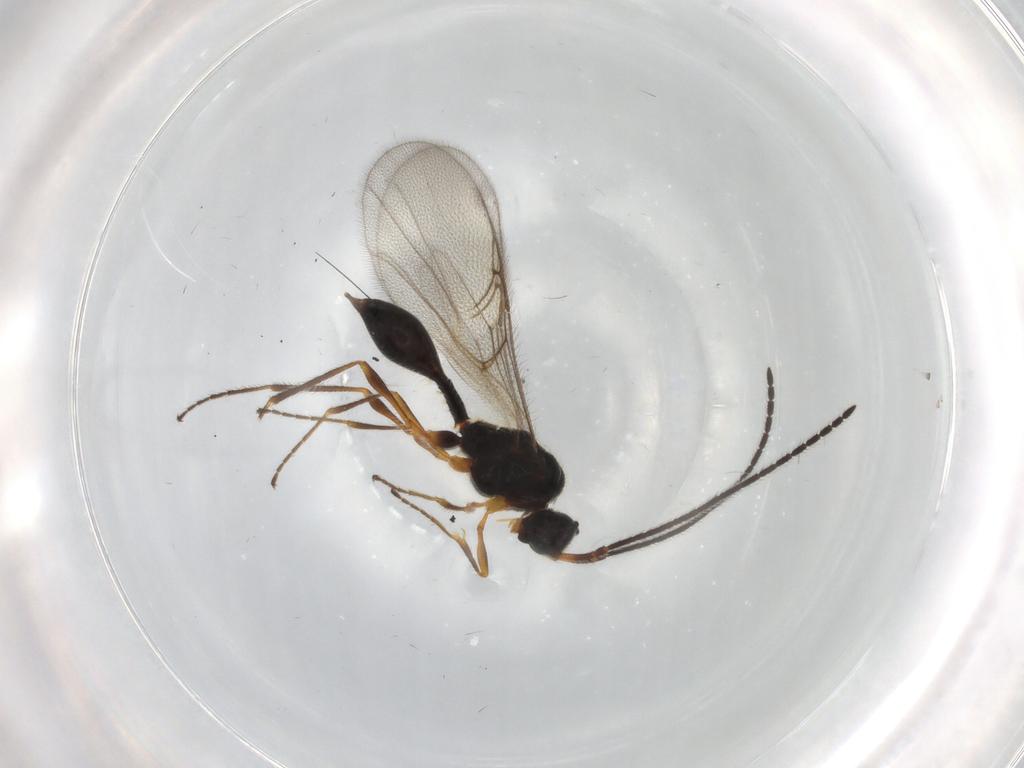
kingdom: Animalia
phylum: Arthropoda
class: Insecta
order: Hymenoptera
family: Diapriidae
